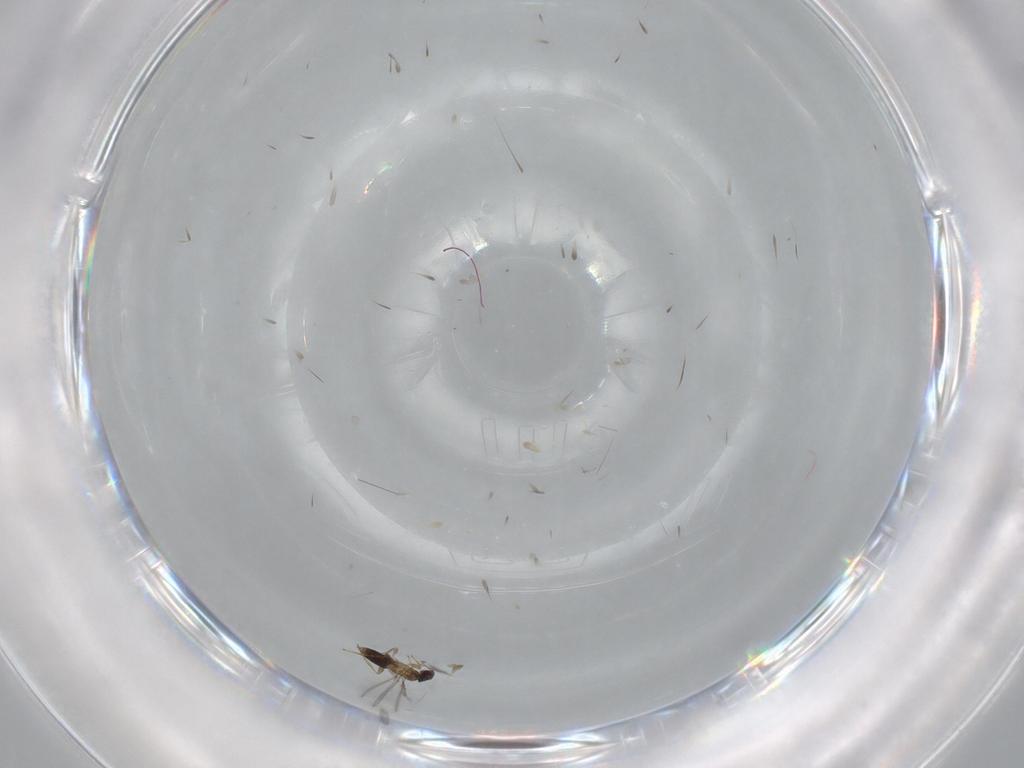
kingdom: Animalia
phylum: Arthropoda
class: Insecta
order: Hymenoptera
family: Mymaridae
